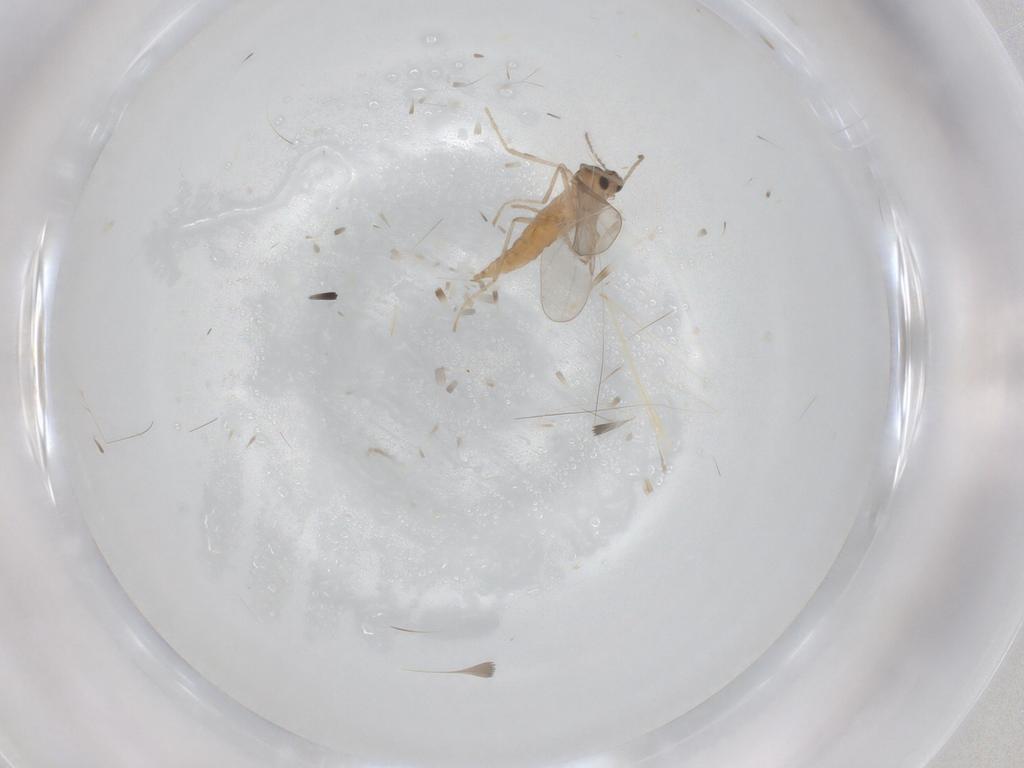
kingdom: Animalia
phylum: Arthropoda
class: Insecta
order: Diptera
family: Cecidomyiidae
